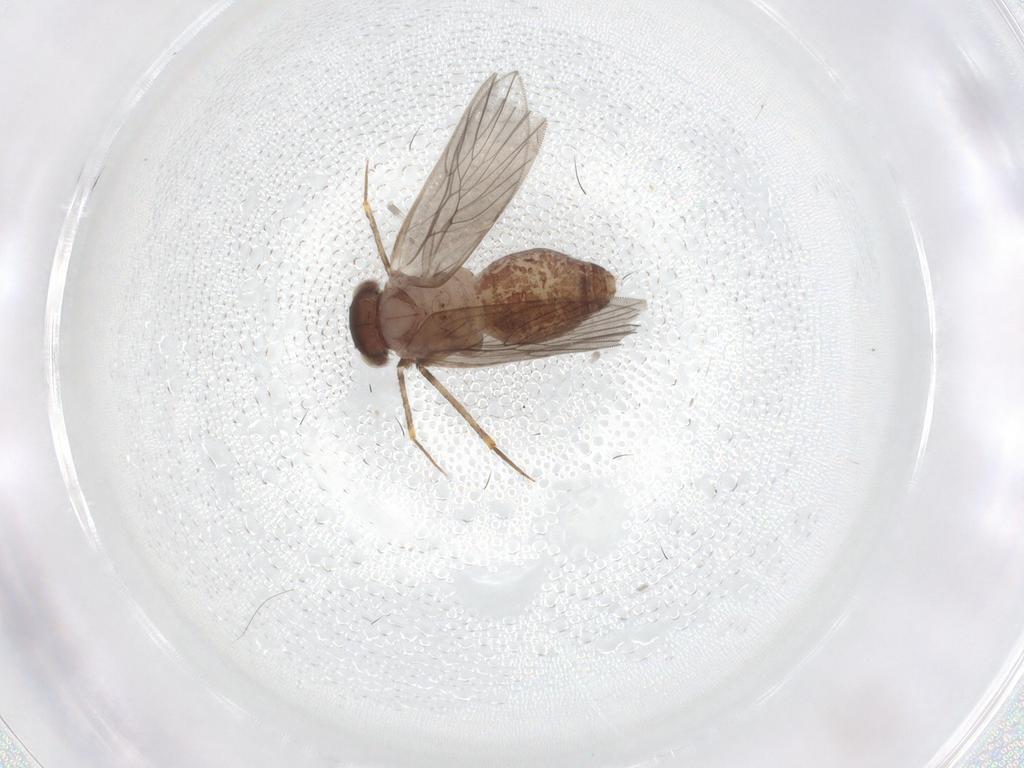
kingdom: Animalia
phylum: Arthropoda
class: Insecta
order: Psocodea
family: Lepidopsocidae
